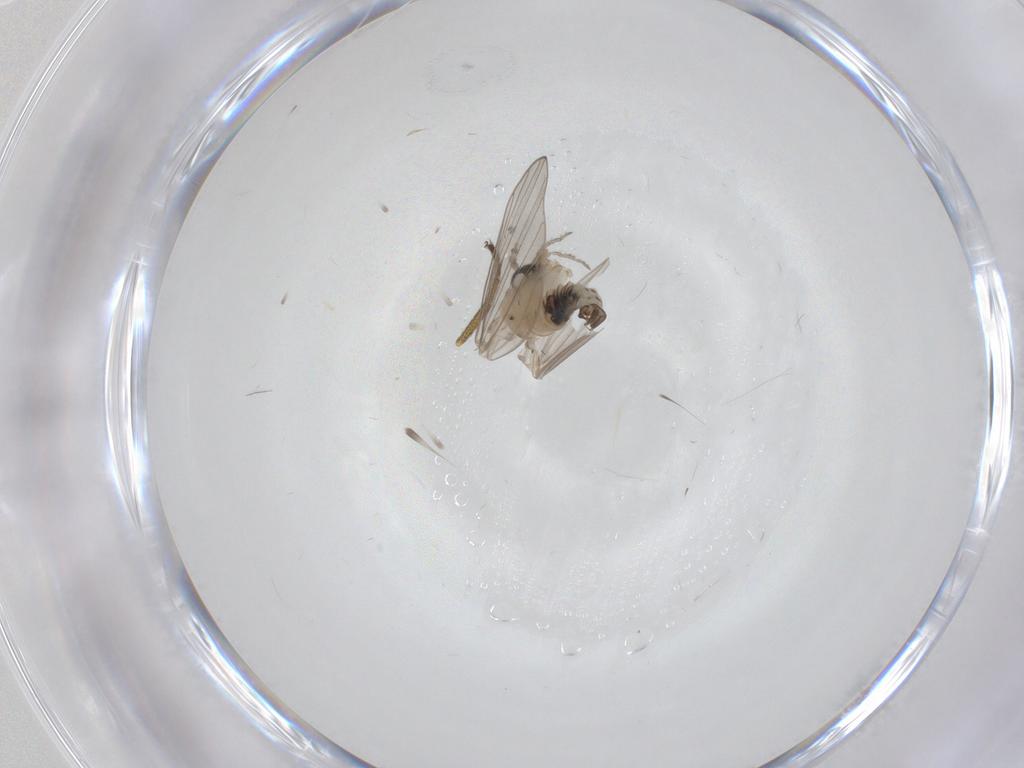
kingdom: Animalia
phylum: Arthropoda
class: Insecta
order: Diptera
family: Psychodidae
